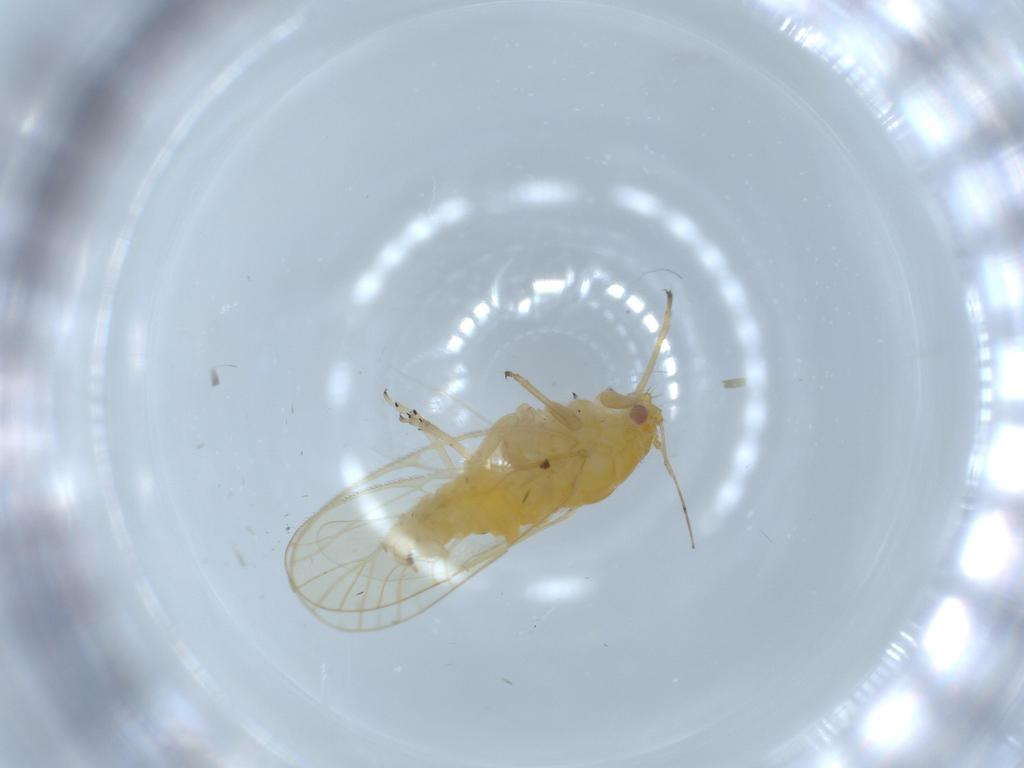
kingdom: Animalia
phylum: Arthropoda
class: Insecta
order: Hemiptera
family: Psyllidae
